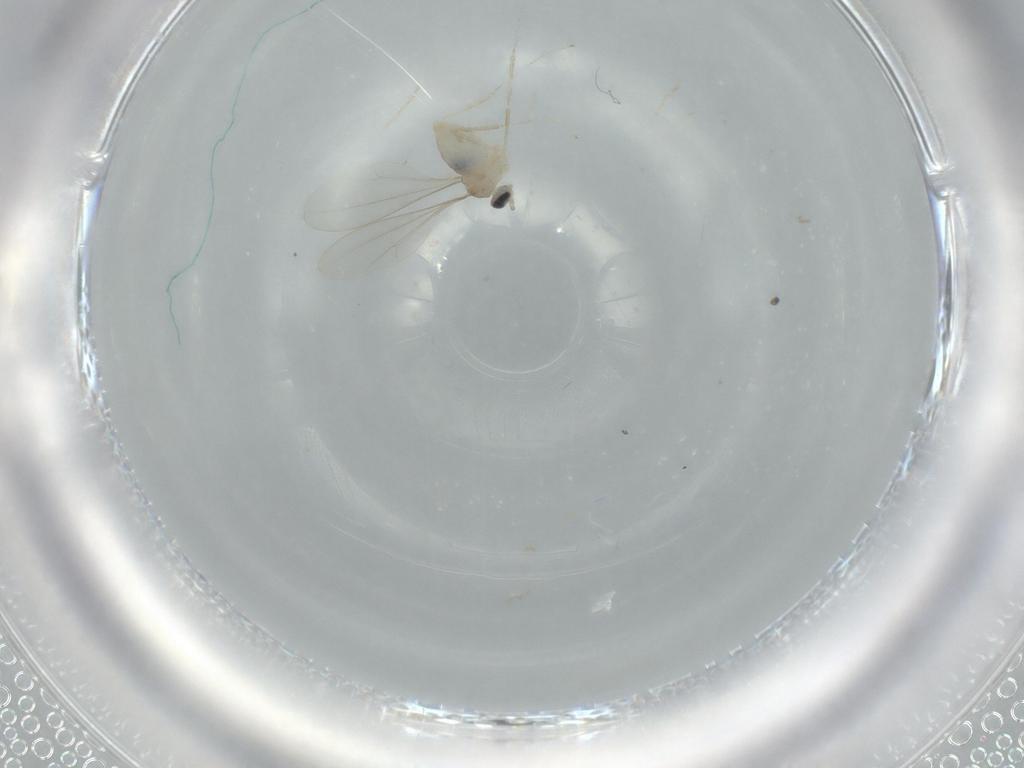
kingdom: Animalia
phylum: Arthropoda
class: Insecta
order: Diptera
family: Cecidomyiidae
